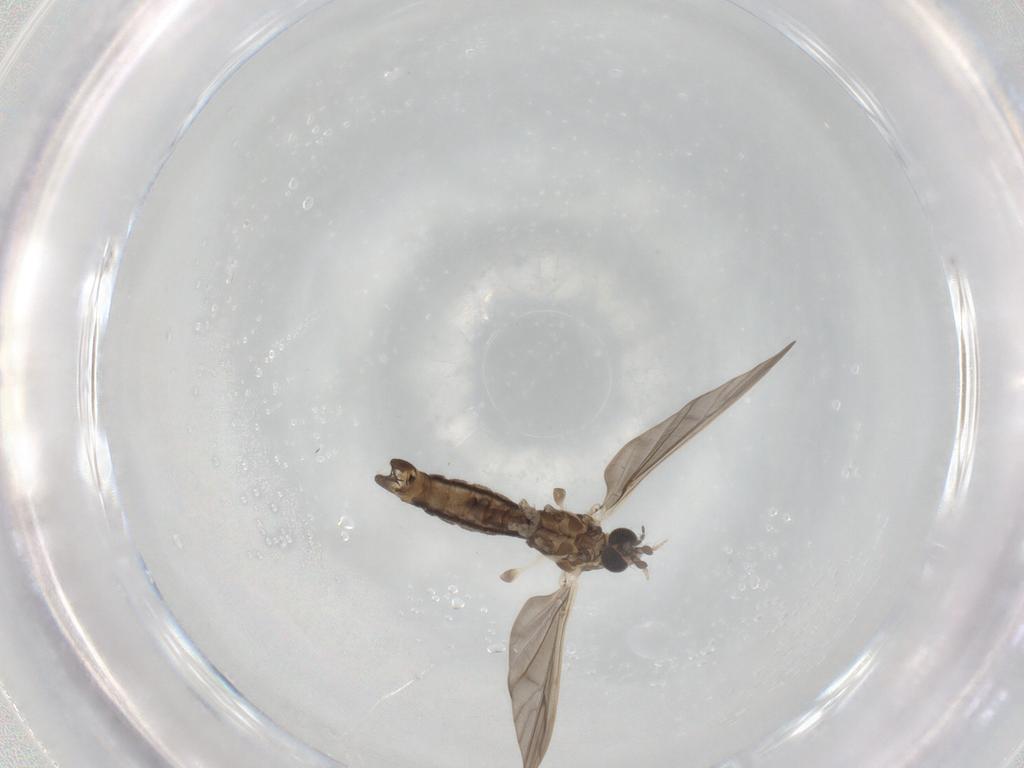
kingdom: Animalia
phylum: Arthropoda
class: Insecta
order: Diptera
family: Limoniidae
